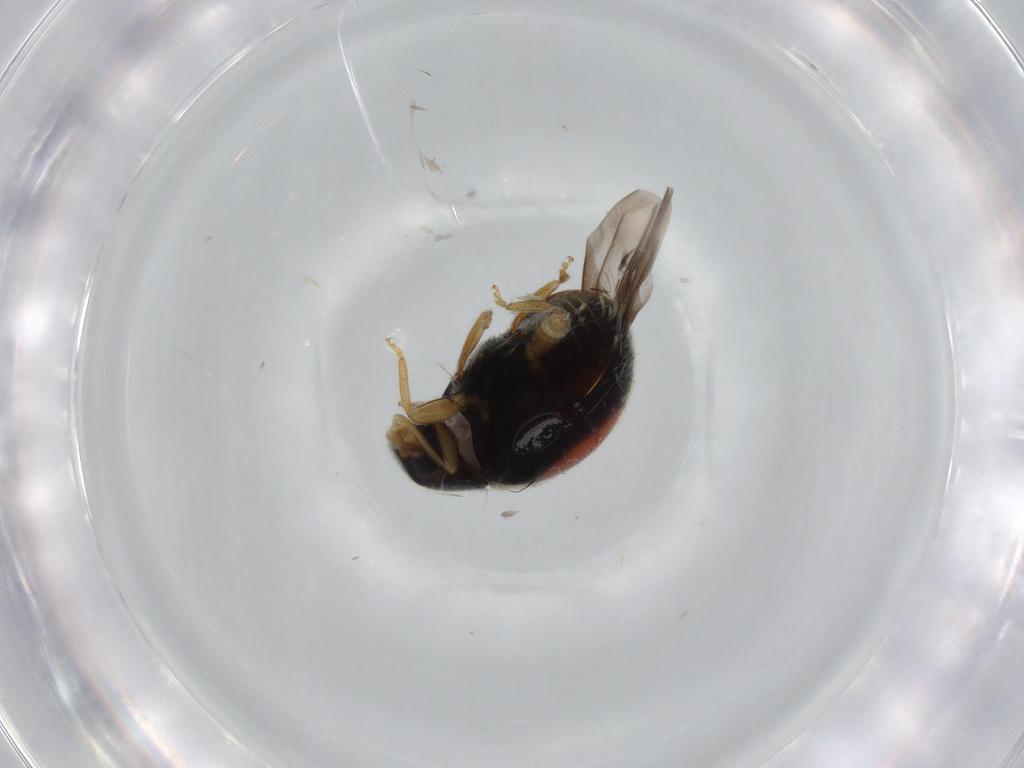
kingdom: Animalia
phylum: Arthropoda
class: Insecta
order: Coleoptera
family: Coccinellidae
